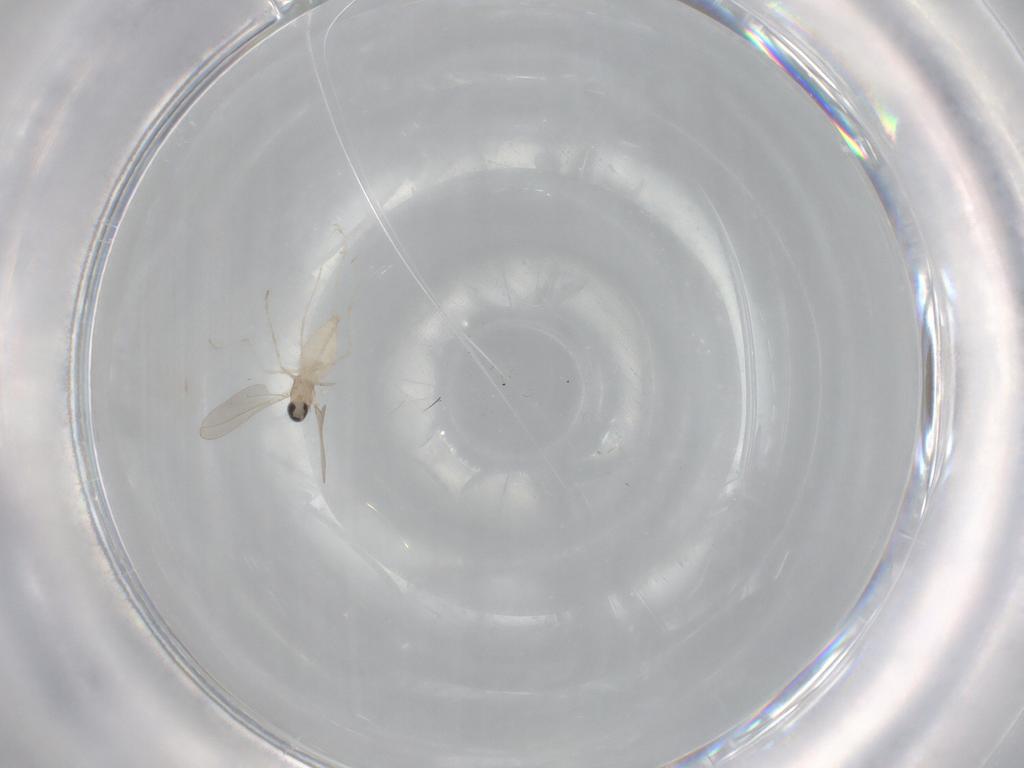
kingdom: Animalia
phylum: Arthropoda
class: Insecta
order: Diptera
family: Cecidomyiidae
